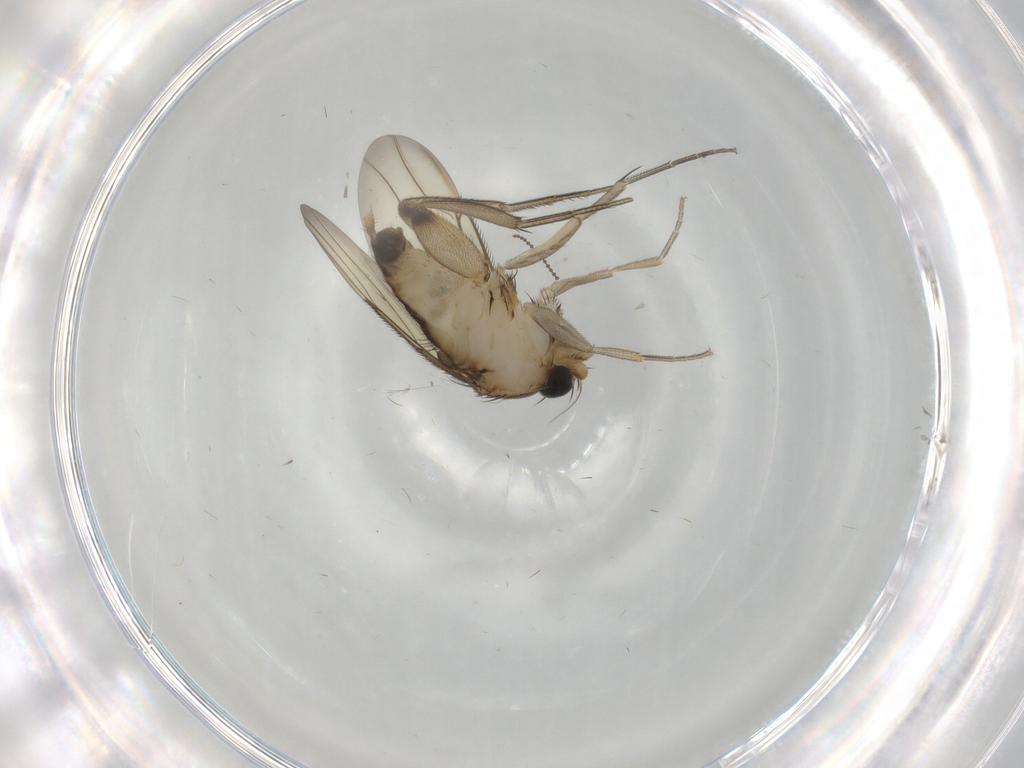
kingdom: Animalia
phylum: Arthropoda
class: Insecta
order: Diptera
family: Phoridae
